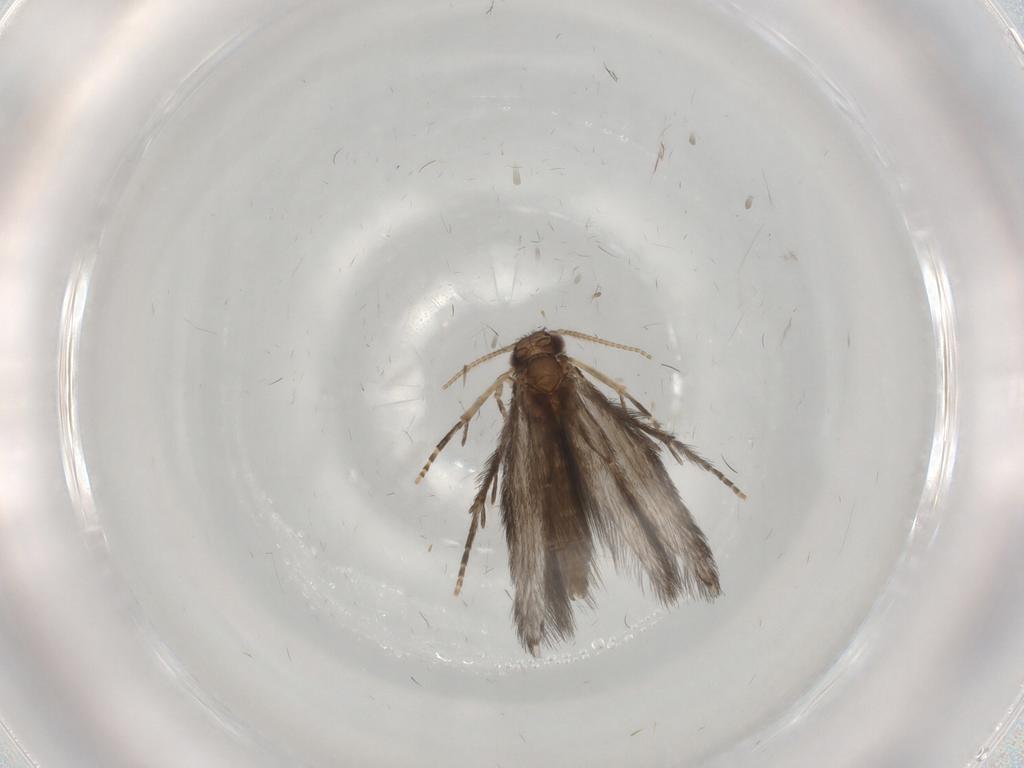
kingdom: Animalia
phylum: Arthropoda
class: Insecta
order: Trichoptera
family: Hydroptilidae
